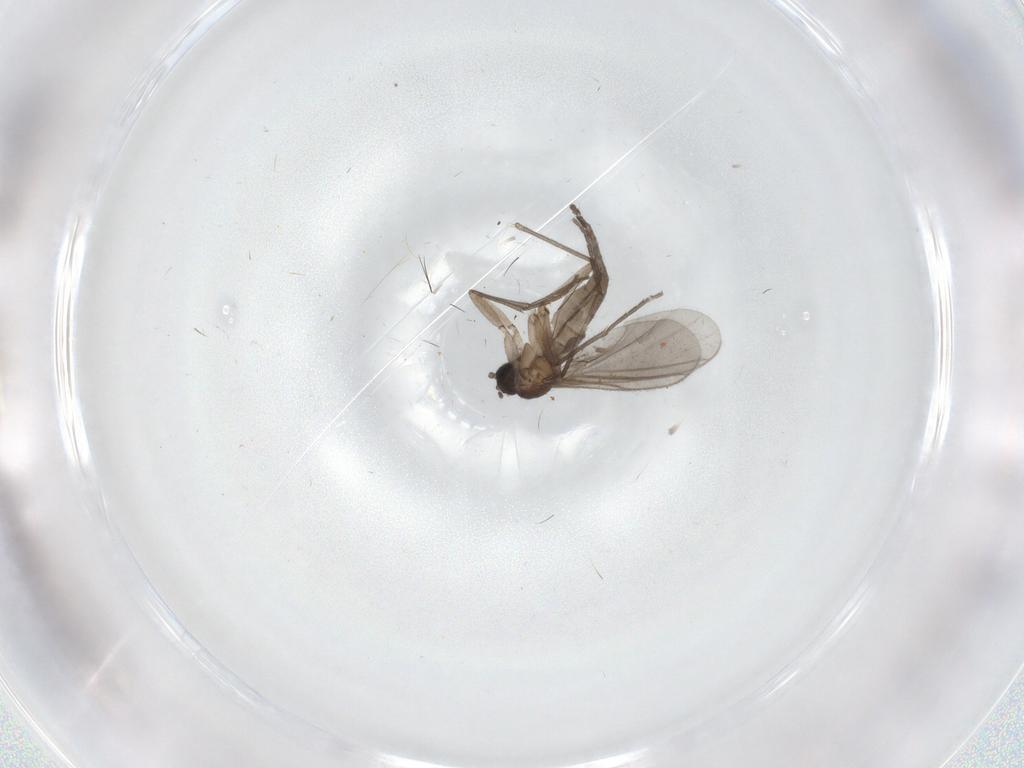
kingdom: Animalia
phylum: Arthropoda
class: Insecta
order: Diptera
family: Sciaridae
